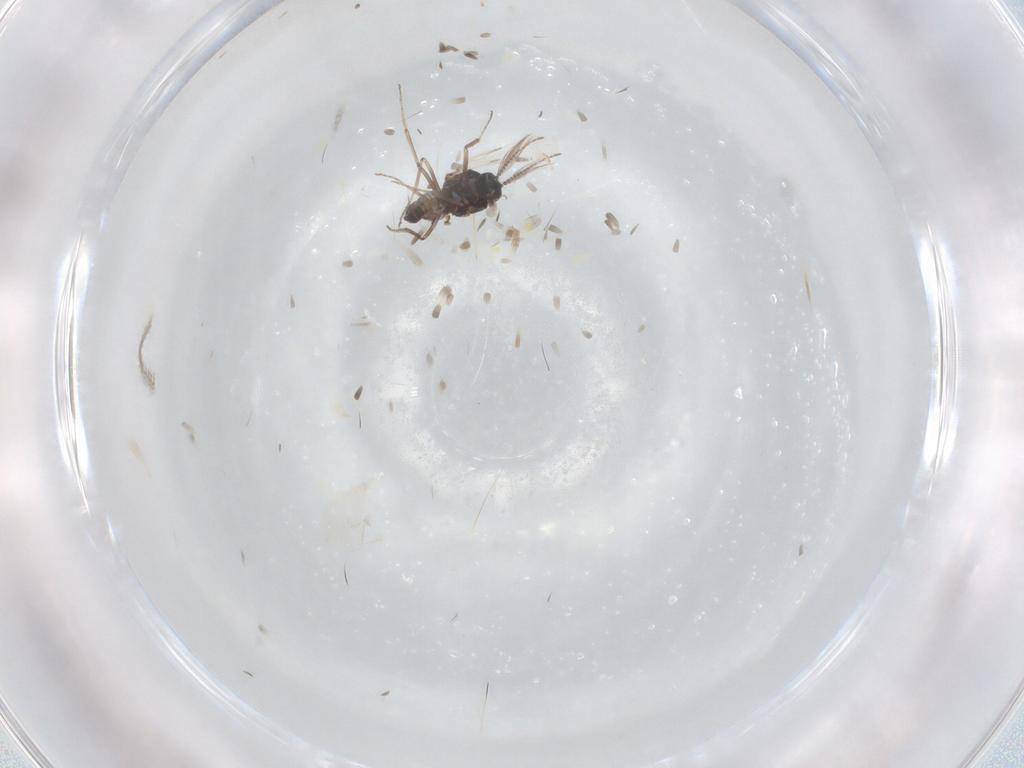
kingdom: Animalia
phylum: Arthropoda
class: Insecta
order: Diptera
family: Ceratopogonidae
